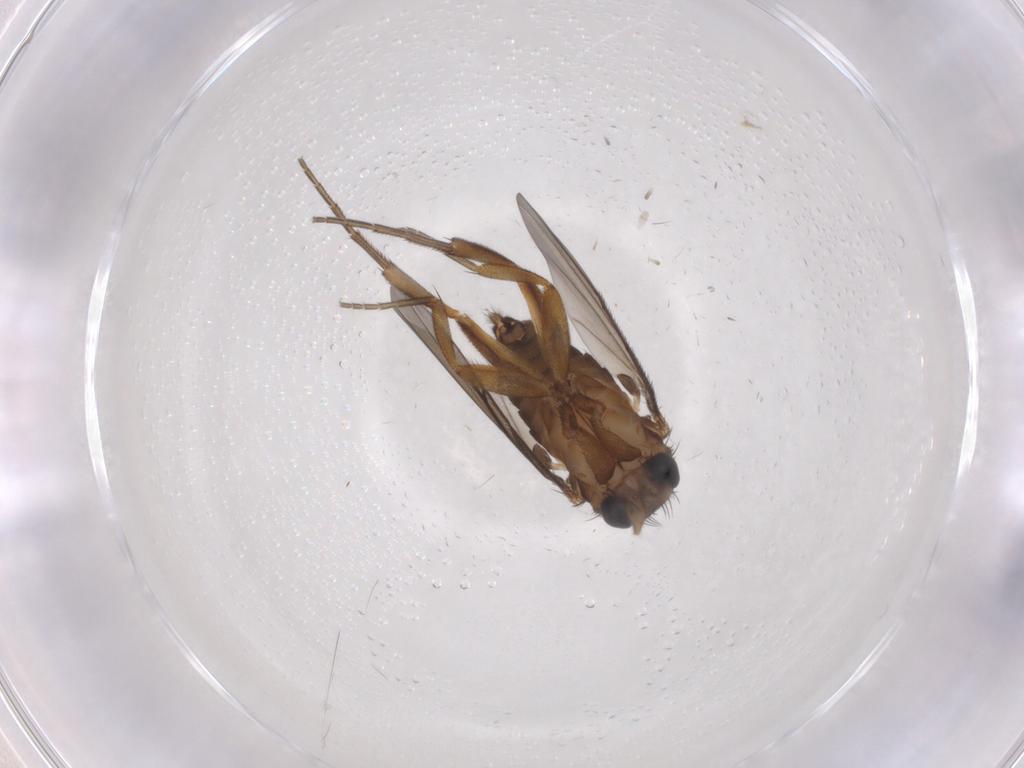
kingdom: Animalia
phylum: Arthropoda
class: Insecta
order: Diptera
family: Phoridae
